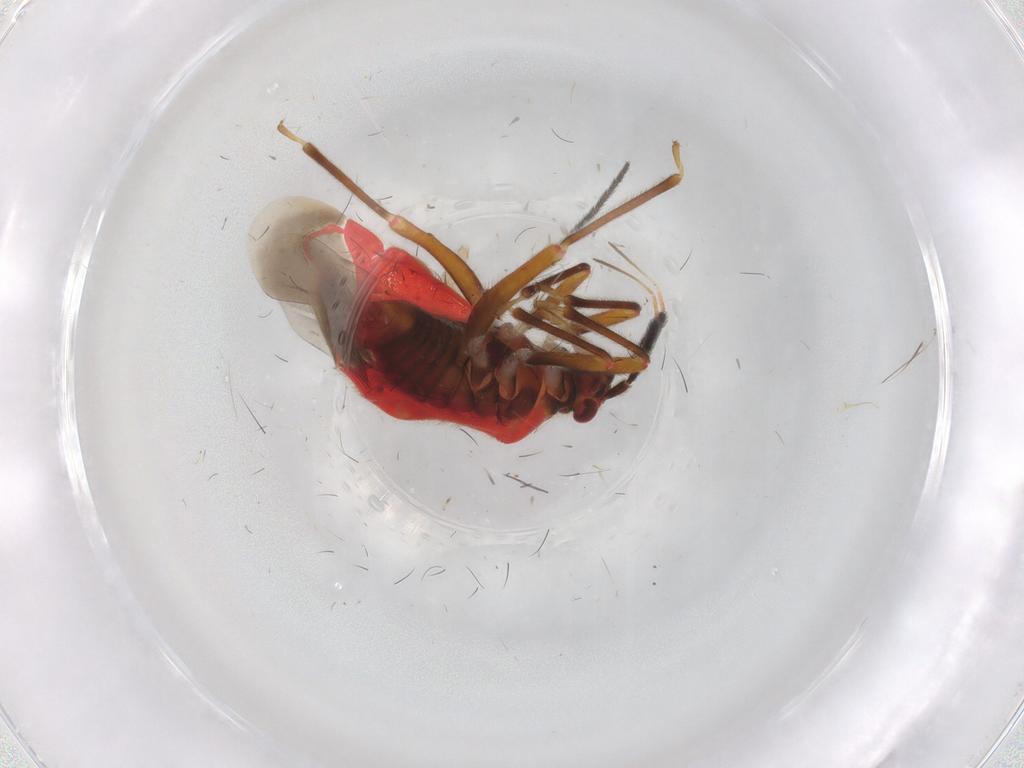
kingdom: Animalia
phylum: Arthropoda
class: Insecta
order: Hemiptera
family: Miridae
